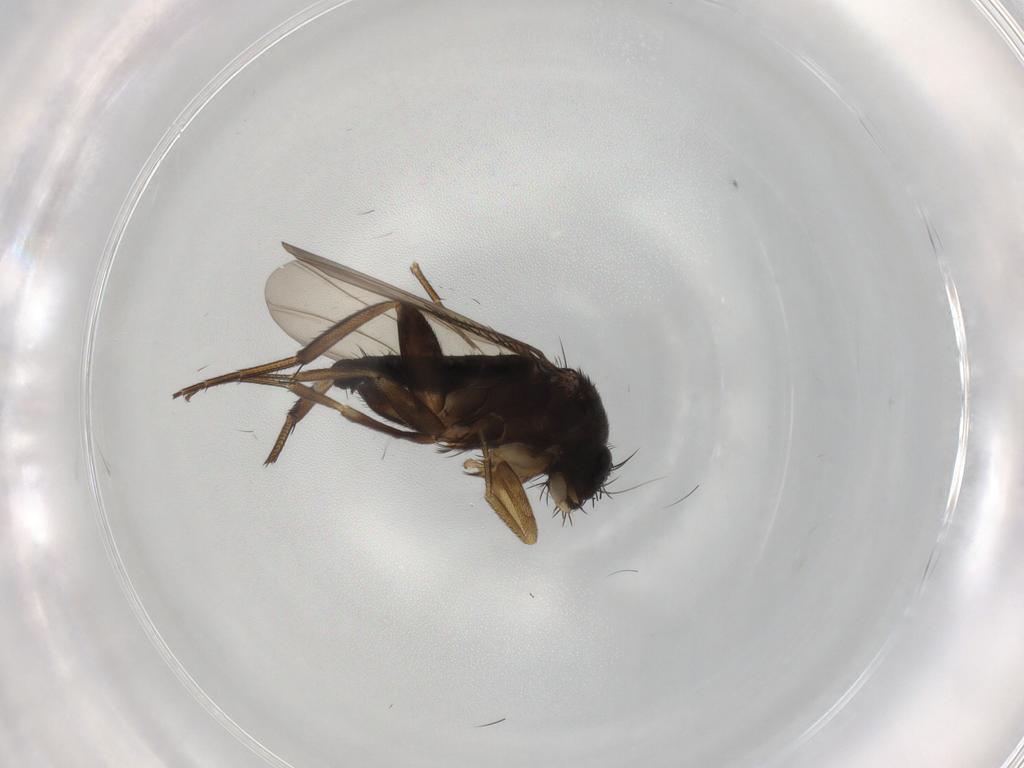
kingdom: Animalia
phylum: Arthropoda
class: Insecta
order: Diptera
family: Phoridae
